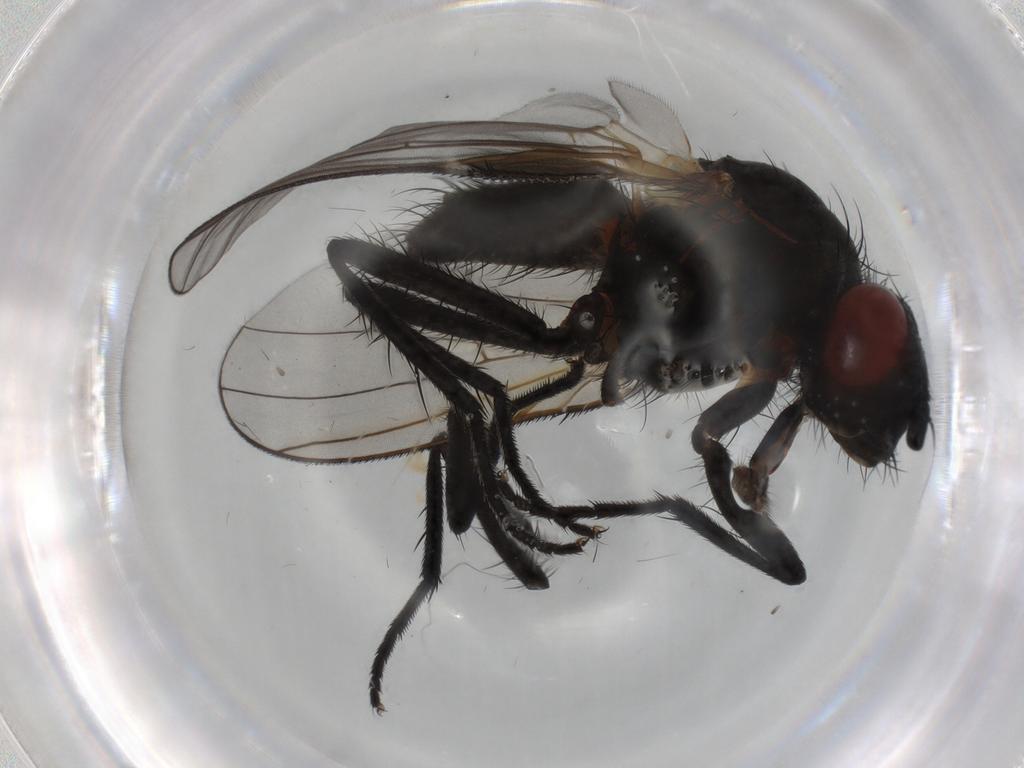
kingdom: Animalia
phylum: Arthropoda
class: Insecta
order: Diptera
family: Anthomyiidae
